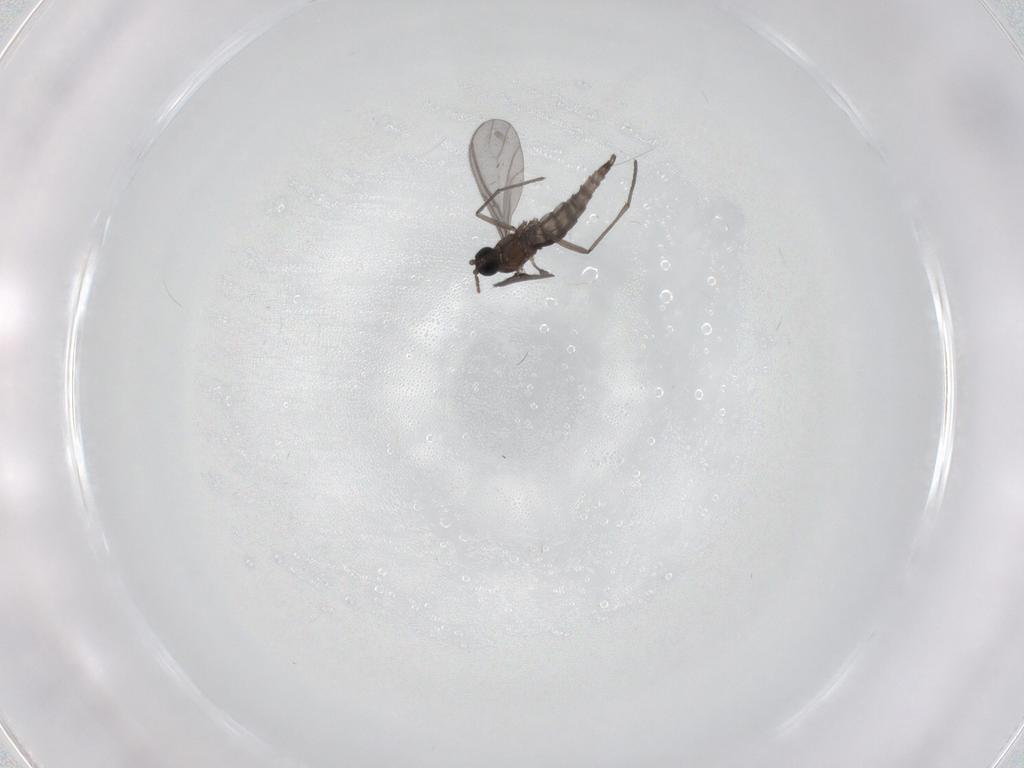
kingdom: Animalia
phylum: Arthropoda
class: Insecta
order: Diptera
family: Sciaridae
